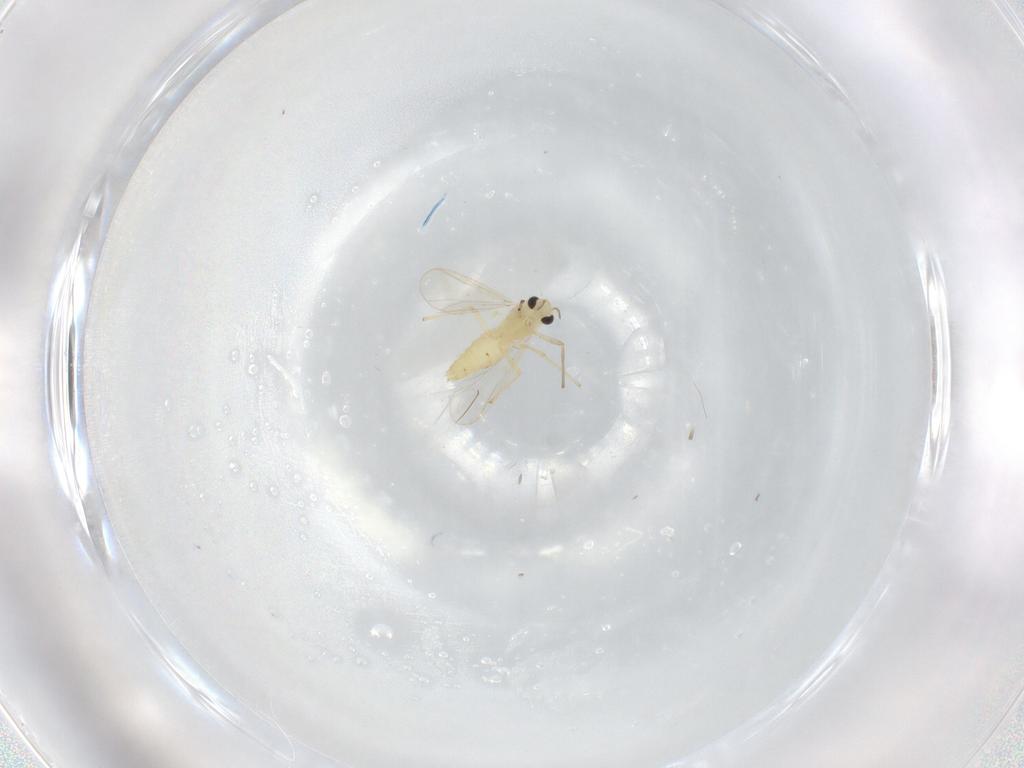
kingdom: Animalia
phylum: Arthropoda
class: Insecta
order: Diptera
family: Chironomidae
